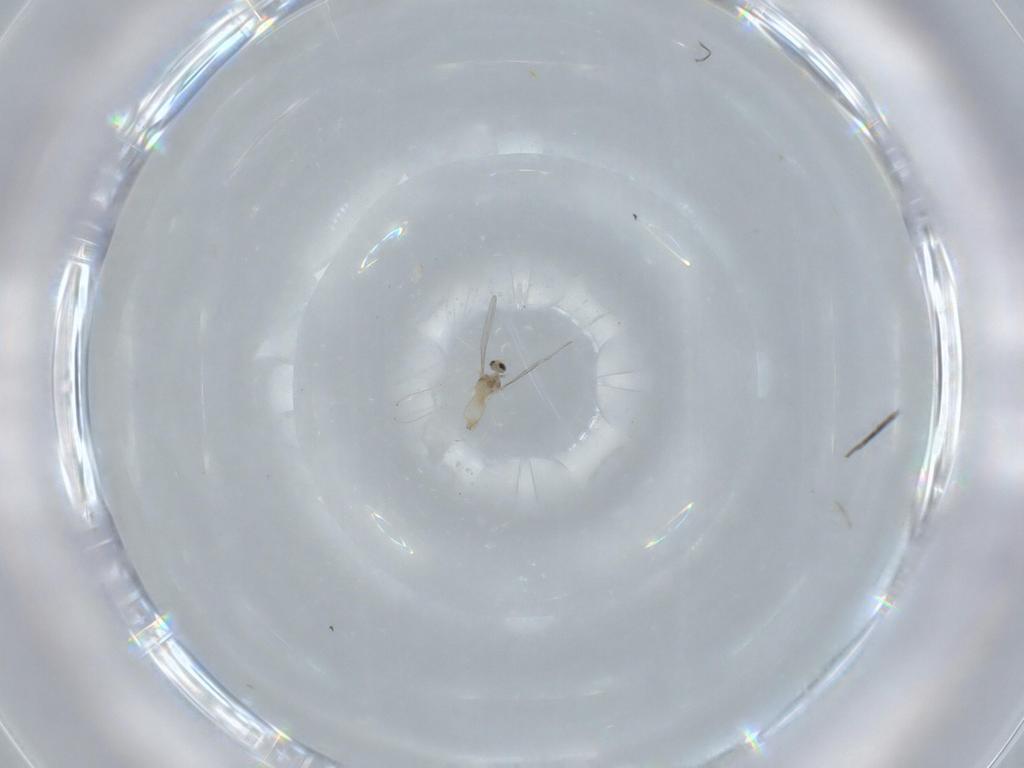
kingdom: Animalia
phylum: Arthropoda
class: Insecta
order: Diptera
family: Cecidomyiidae
